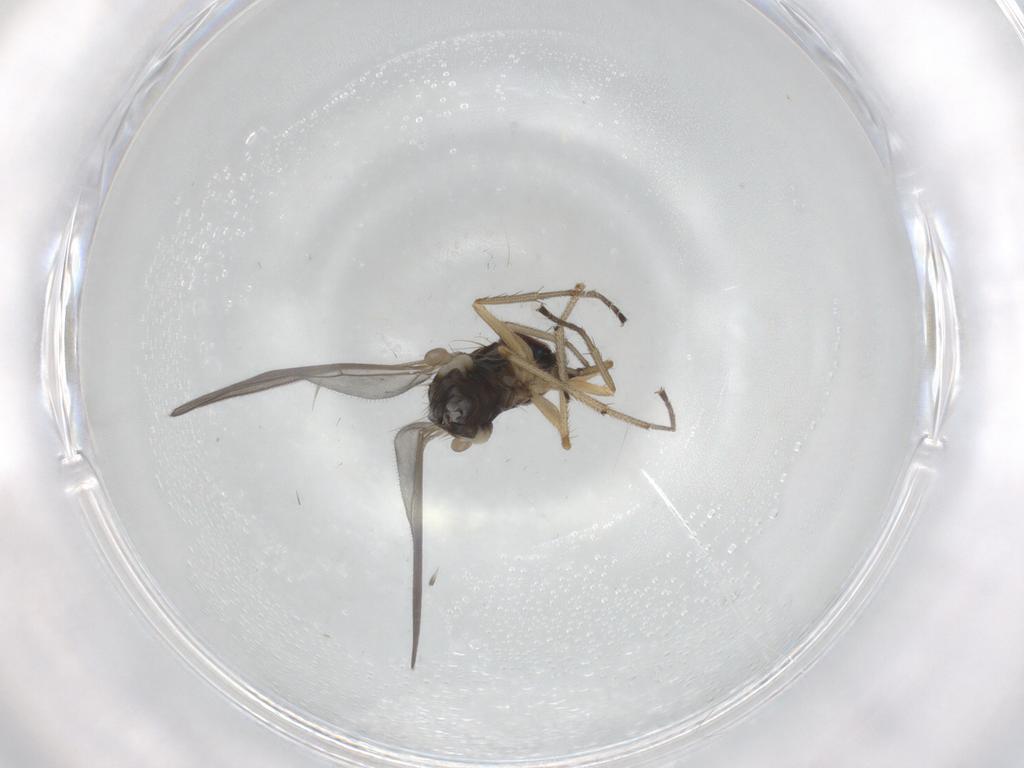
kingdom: Animalia
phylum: Arthropoda
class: Insecta
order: Diptera
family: Dolichopodidae
